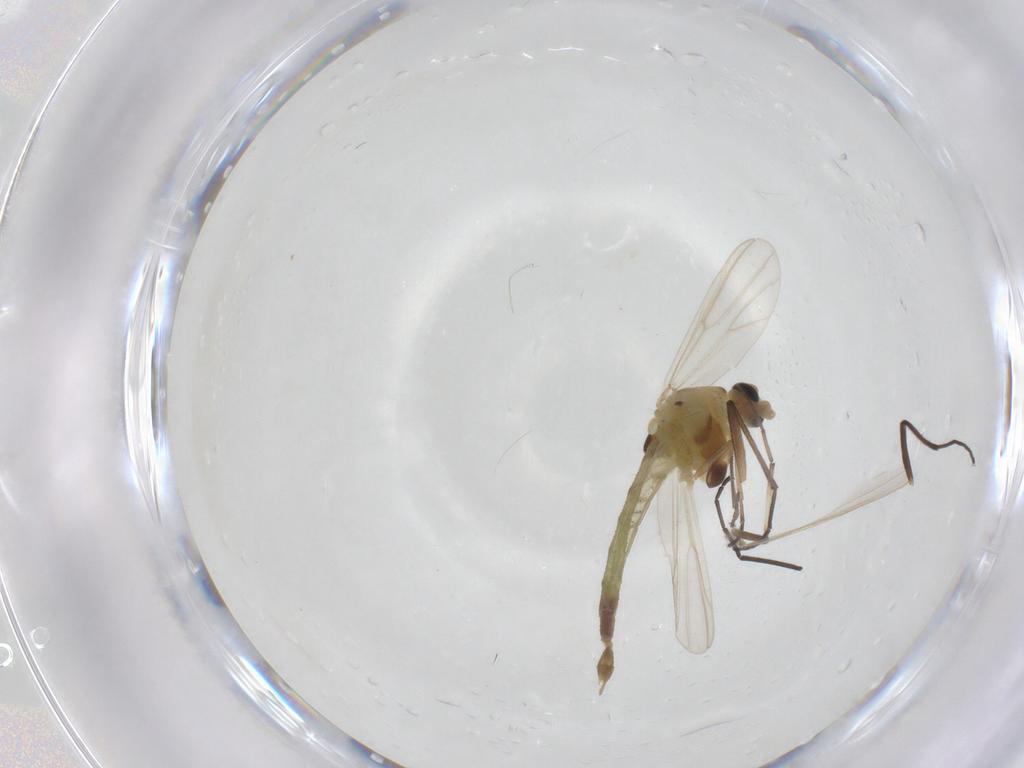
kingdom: Animalia
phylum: Arthropoda
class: Insecta
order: Diptera
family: Chironomidae
